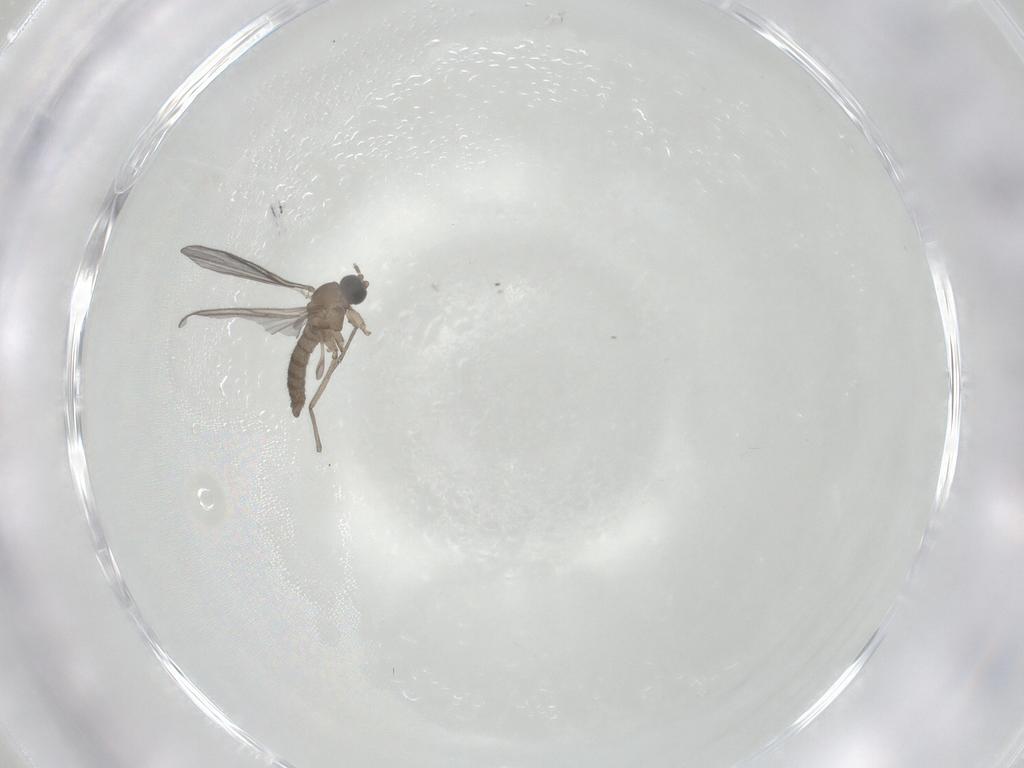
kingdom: Animalia
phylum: Arthropoda
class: Insecta
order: Diptera
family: Sciaridae
